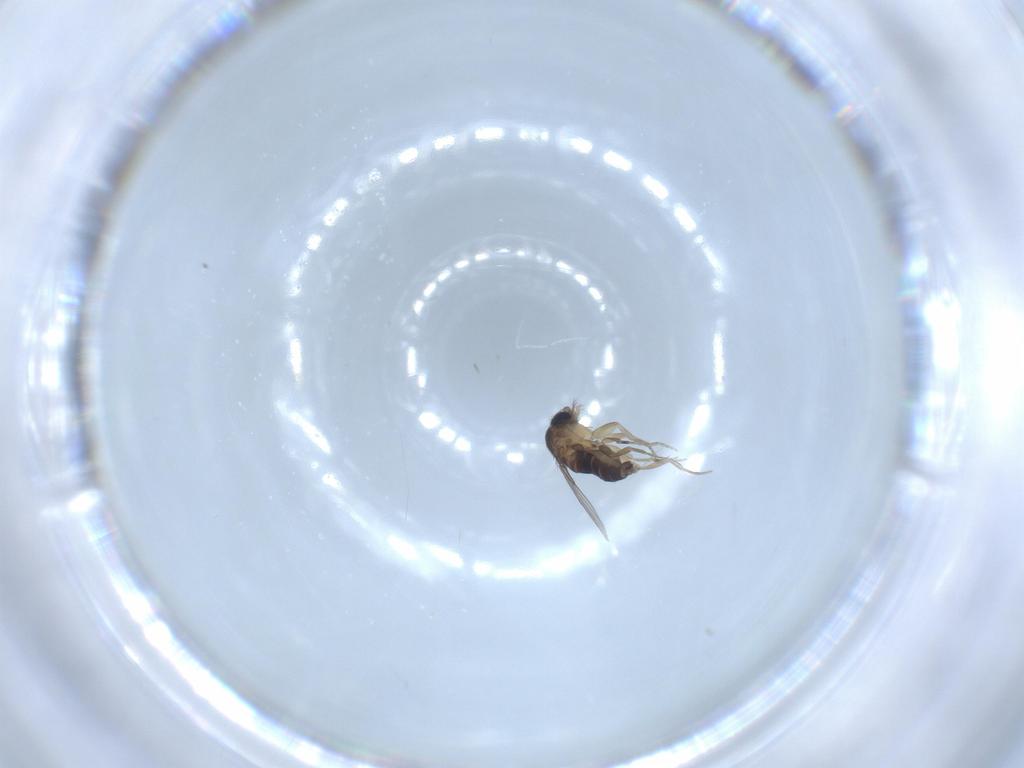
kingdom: Animalia
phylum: Arthropoda
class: Insecta
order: Diptera
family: Phoridae
